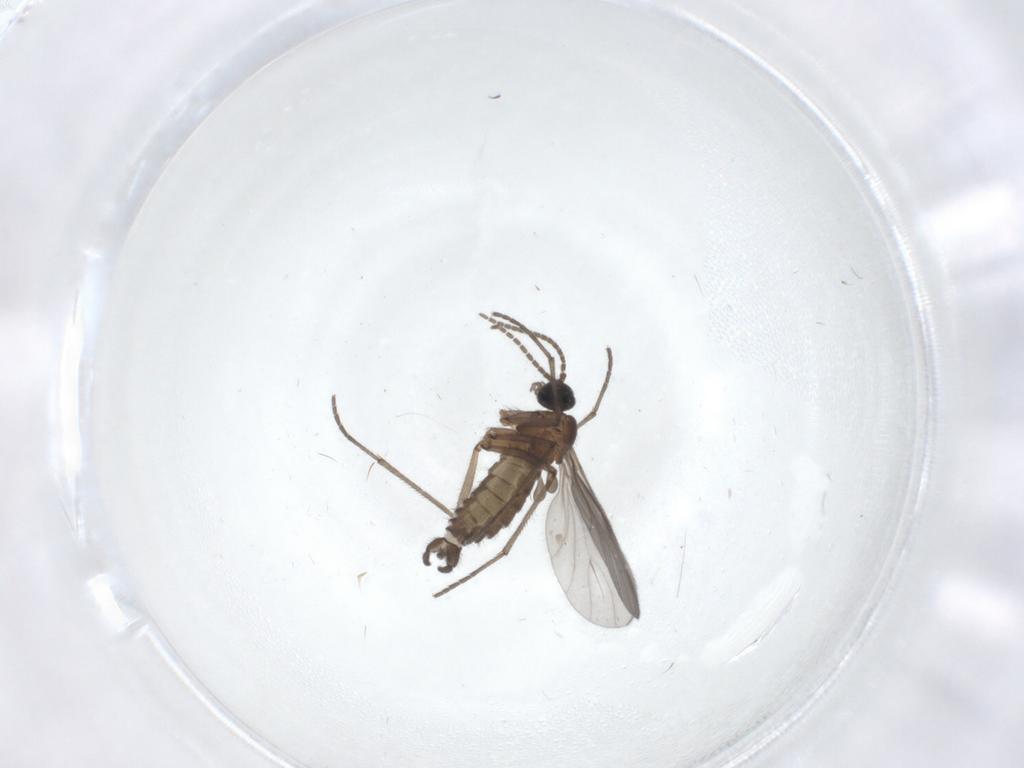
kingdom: Animalia
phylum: Arthropoda
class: Insecta
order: Diptera
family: Sciaridae
